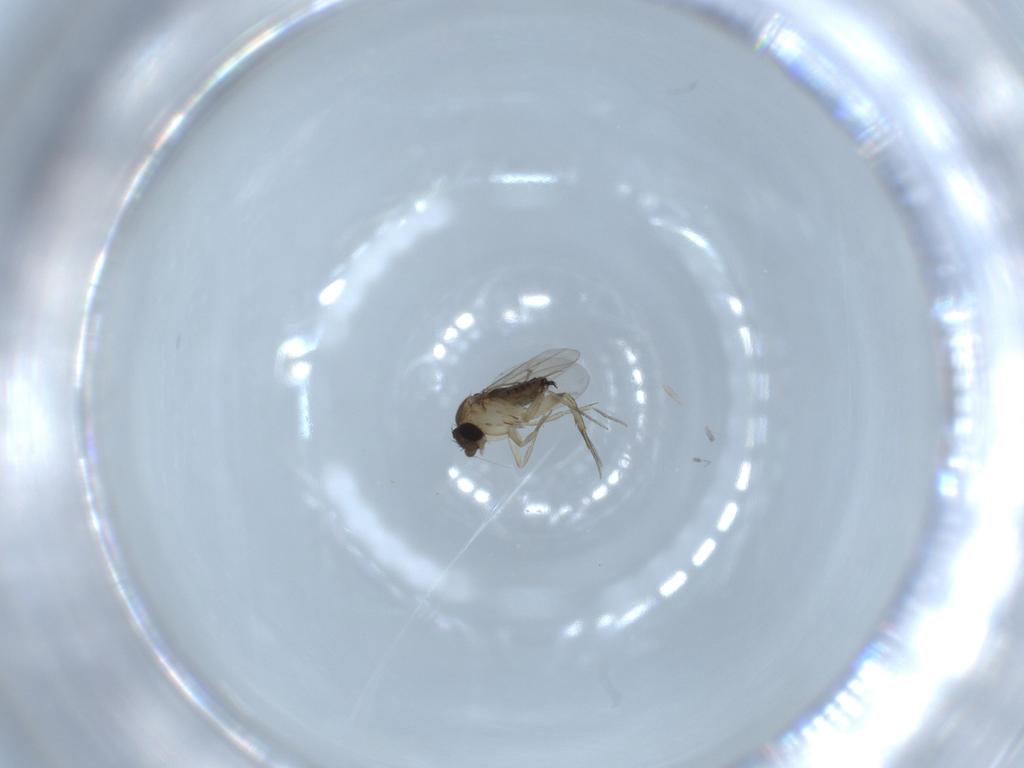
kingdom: Animalia
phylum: Arthropoda
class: Insecta
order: Diptera
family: Phoridae
